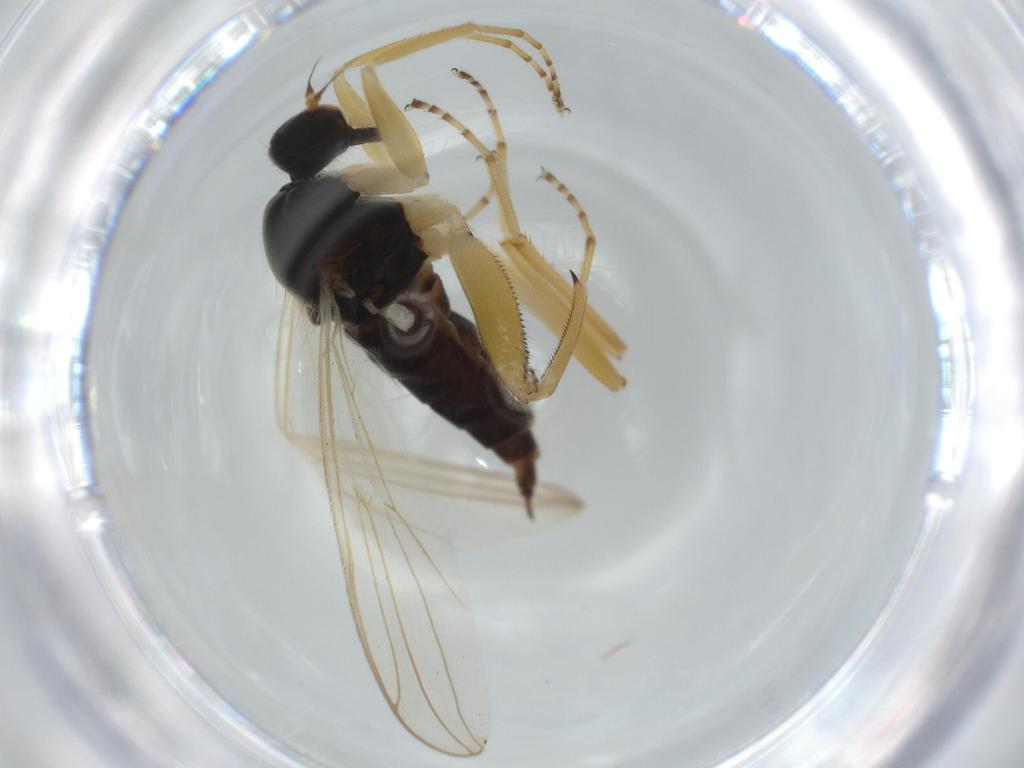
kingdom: Animalia
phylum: Arthropoda
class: Insecta
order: Diptera
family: Hybotidae
